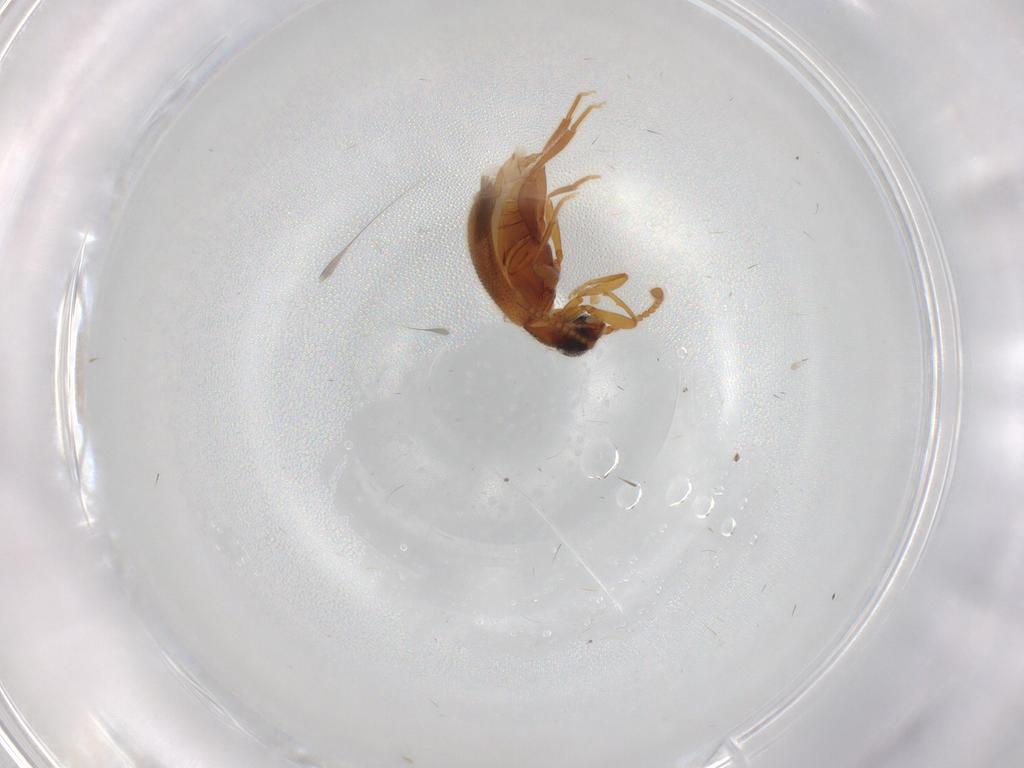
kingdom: Animalia
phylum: Arthropoda
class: Insecta
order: Coleoptera
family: Aderidae
